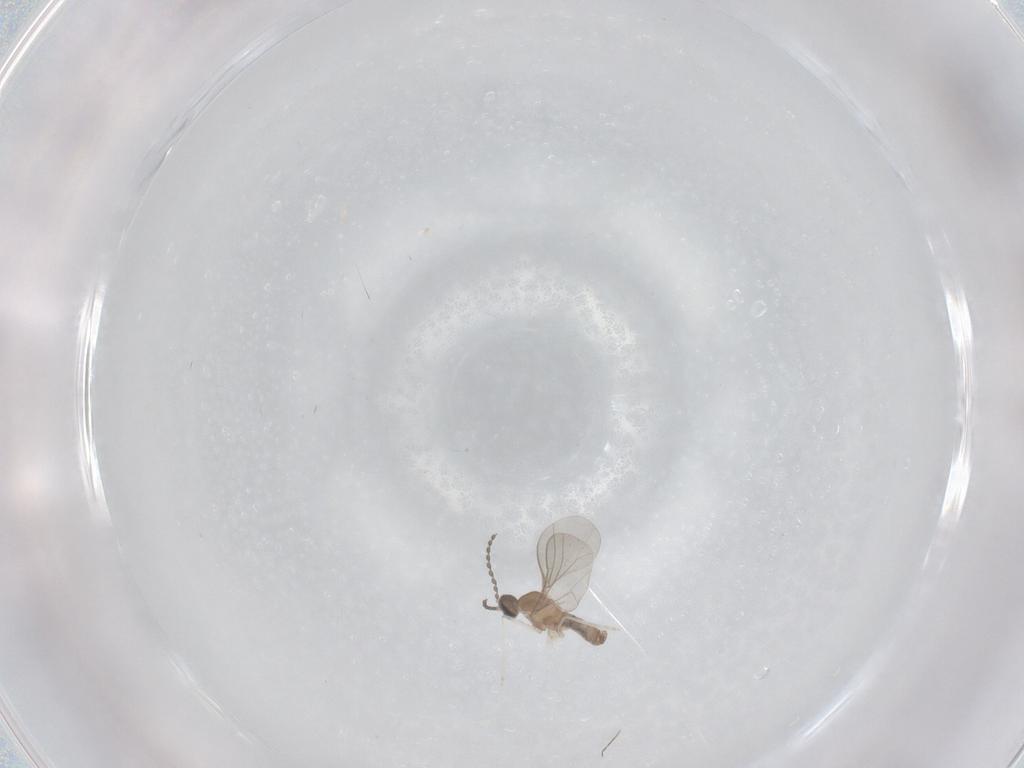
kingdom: Animalia
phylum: Arthropoda
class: Insecta
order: Diptera
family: Cecidomyiidae
